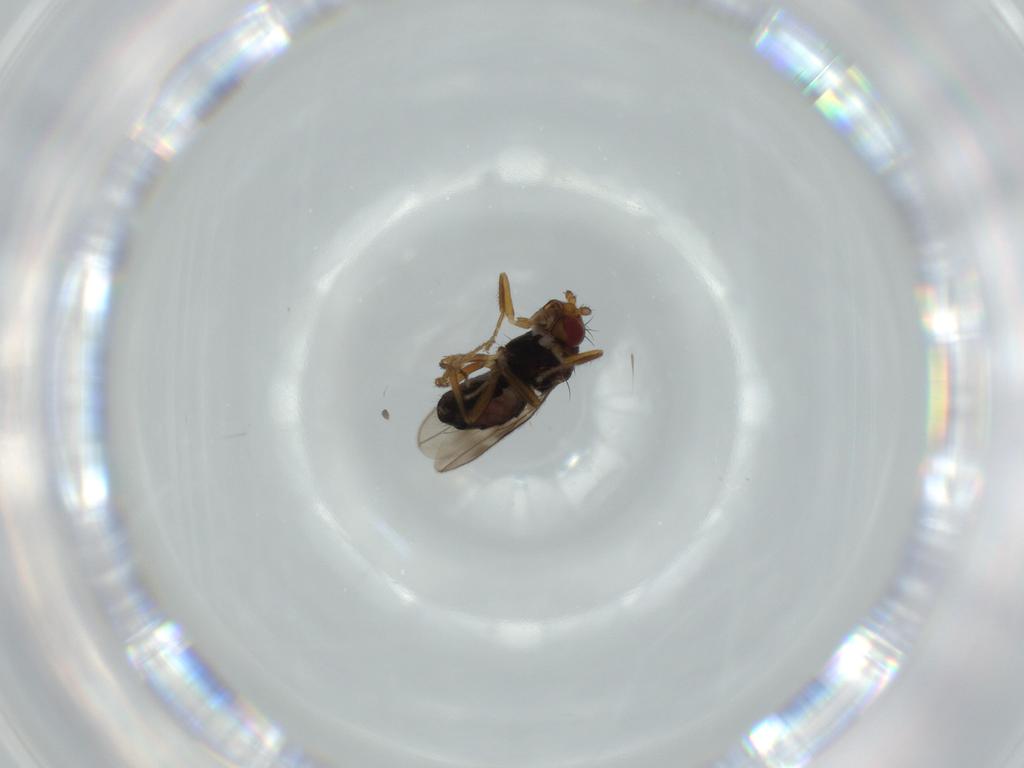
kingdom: Animalia
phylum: Arthropoda
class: Insecta
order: Diptera
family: Sphaeroceridae
